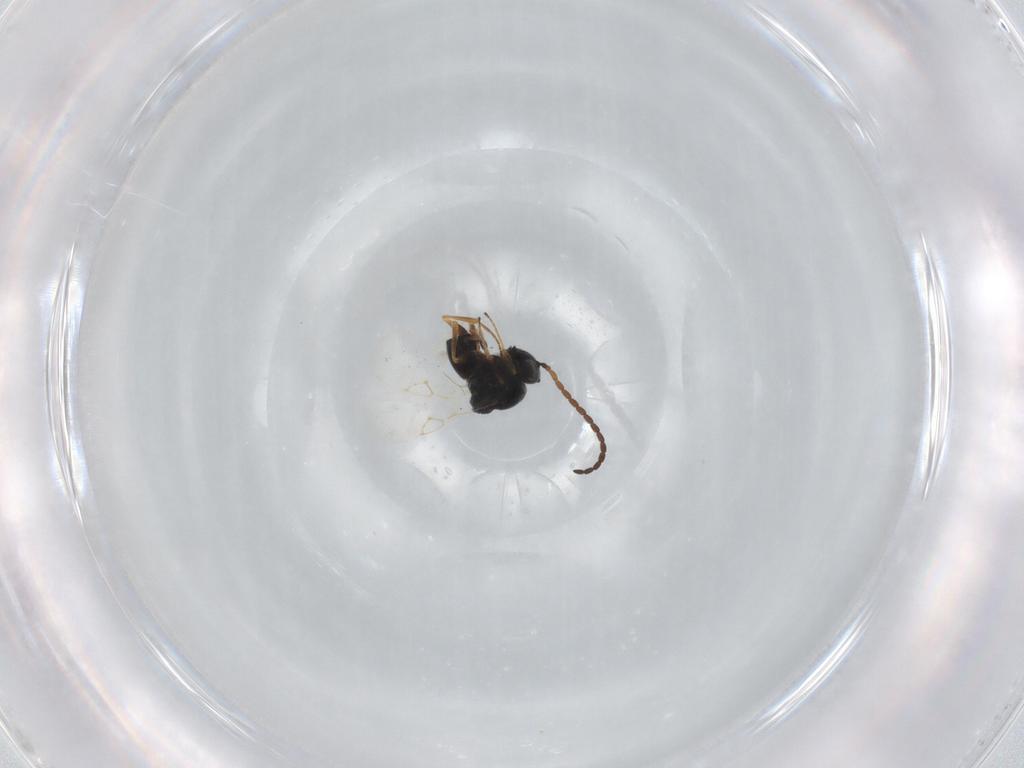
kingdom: Animalia
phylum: Arthropoda
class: Insecta
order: Hymenoptera
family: Figitidae
